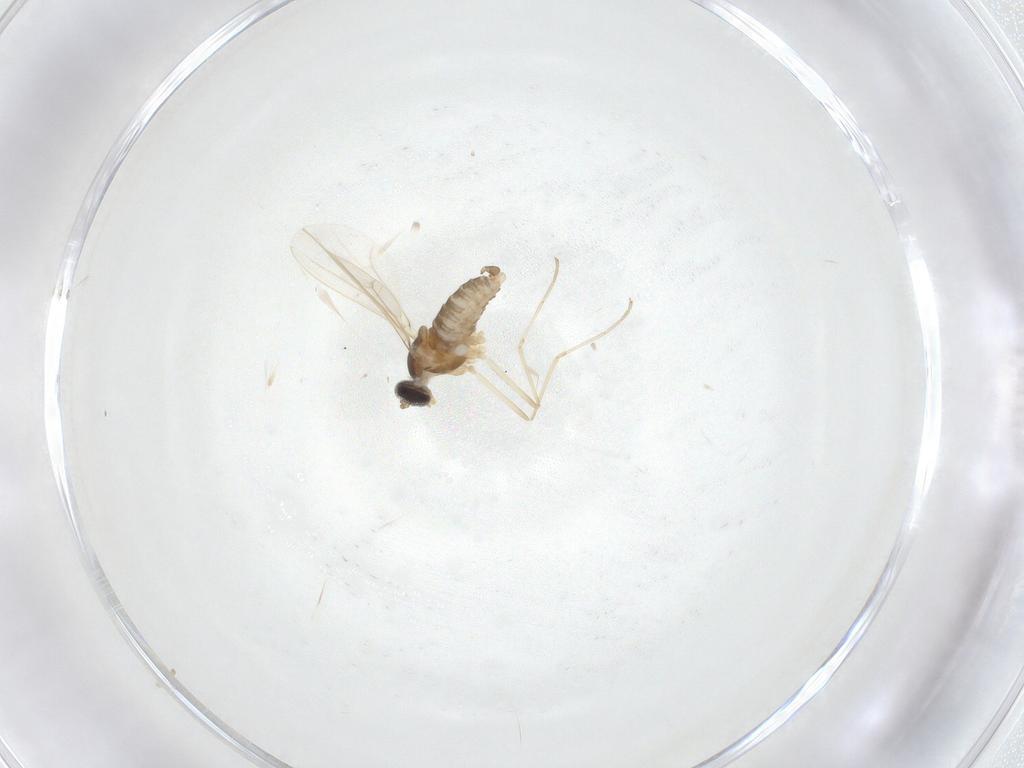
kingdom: Animalia
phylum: Arthropoda
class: Insecta
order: Diptera
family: Cecidomyiidae
